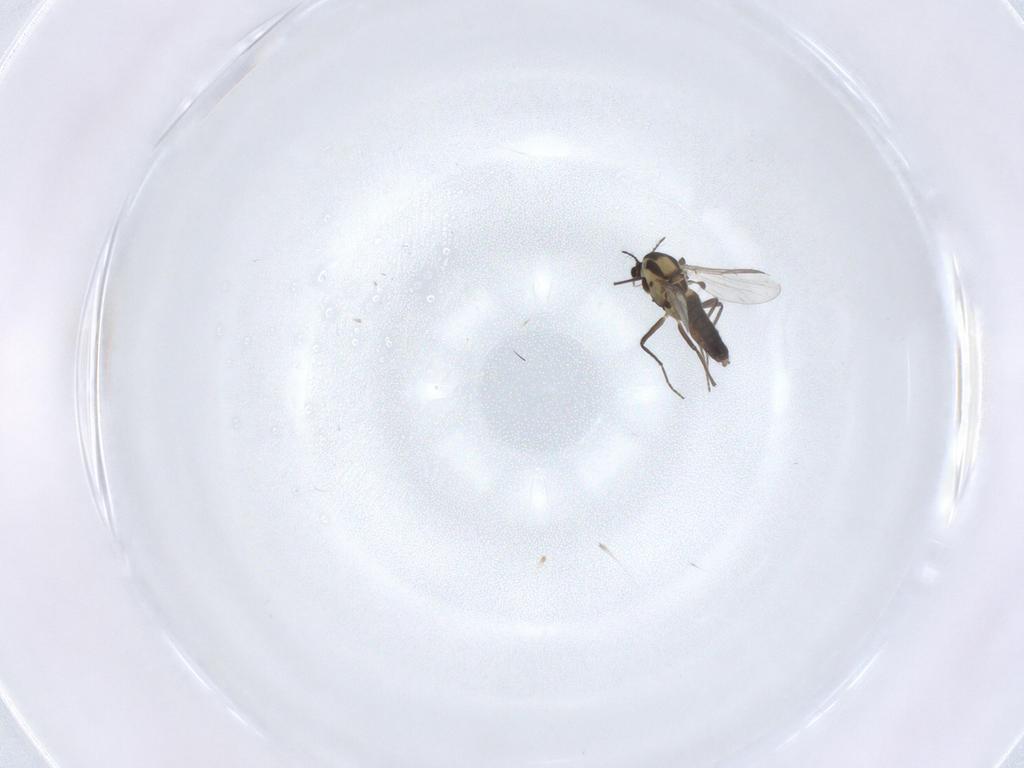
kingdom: Animalia
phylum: Arthropoda
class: Insecta
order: Diptera
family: Chironomidae
